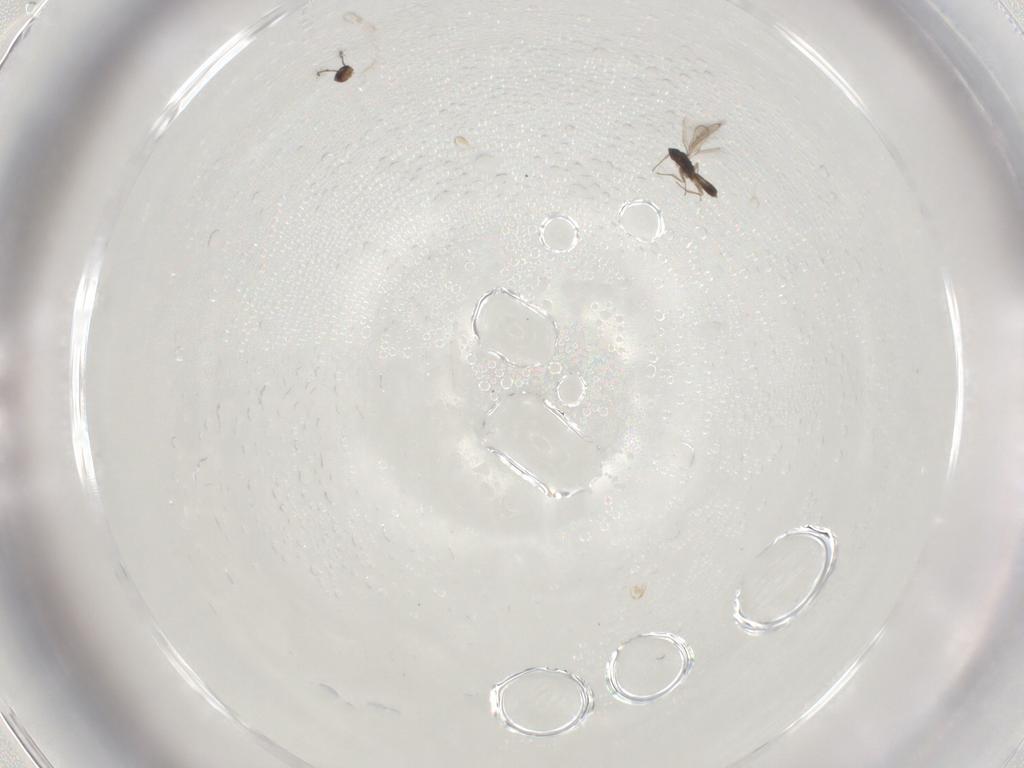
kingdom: Animalia
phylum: Arthropoda
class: Insecta
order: Hymenoptera
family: Pteromalidae
